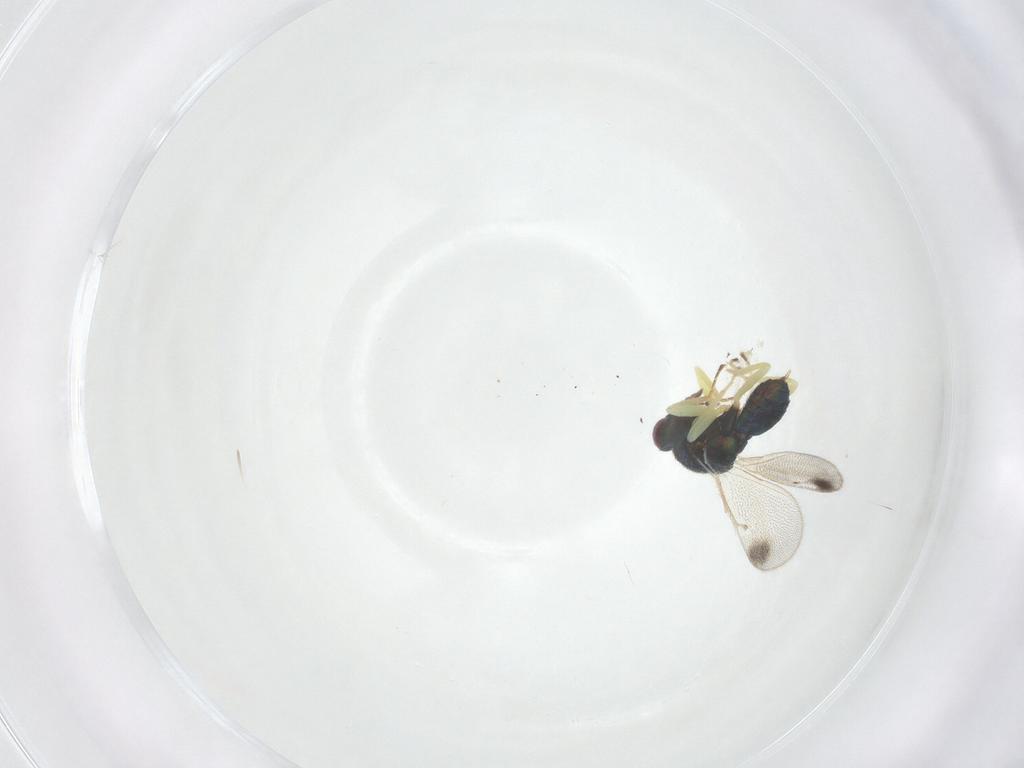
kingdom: Animalia
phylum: Arthropoda
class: Insecta
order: Hymenoptera
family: Eulophidae
